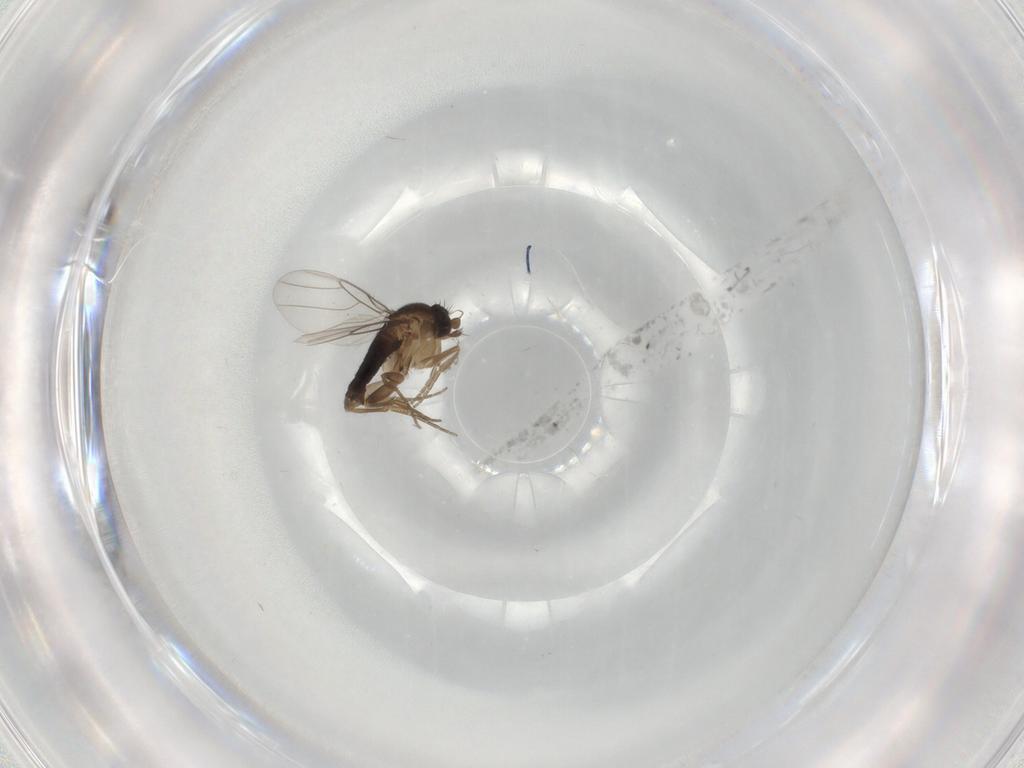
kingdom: Animalia
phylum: Arthropoda
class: Insecta
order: Diptera
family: Phoridae
